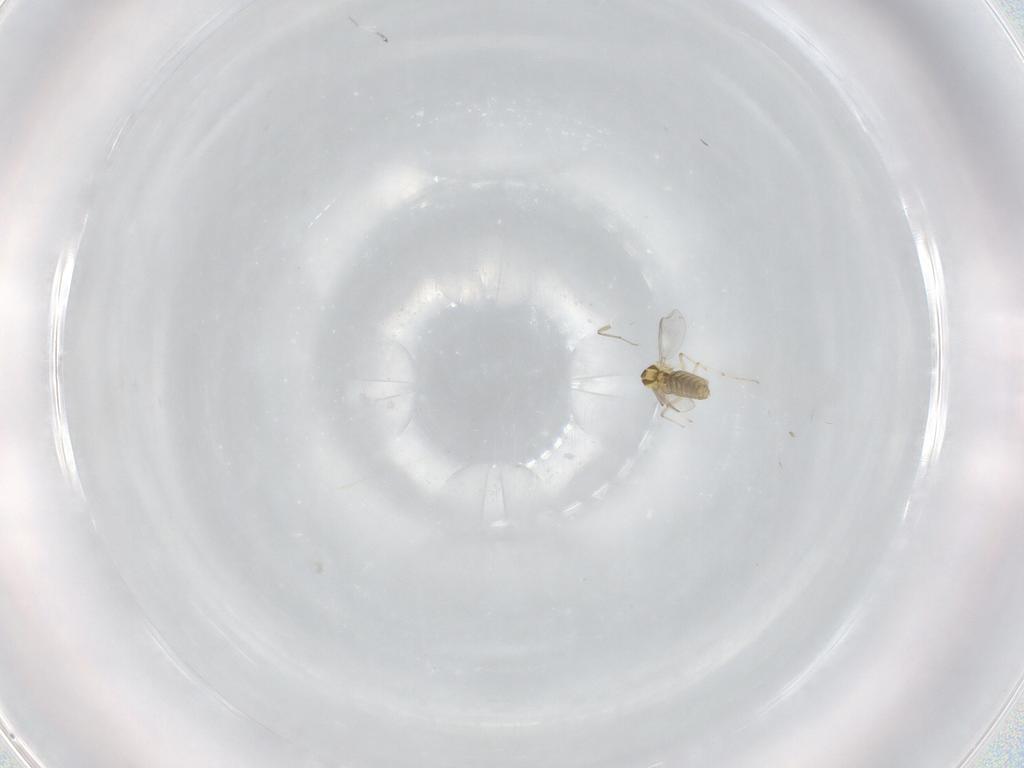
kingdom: Animalia
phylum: Arthropoda
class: Insecta
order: Diptera
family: Chironomidae
